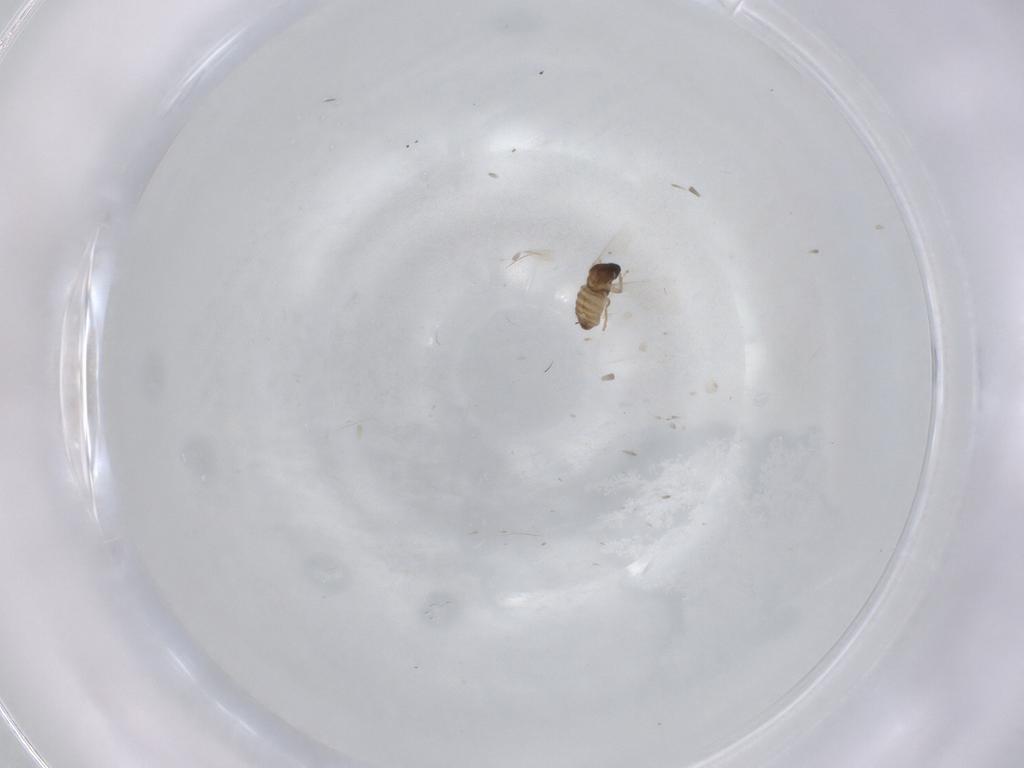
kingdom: Animalia
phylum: Arthropoda
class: Insecta
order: Diptera
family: Cecidomyiidae
